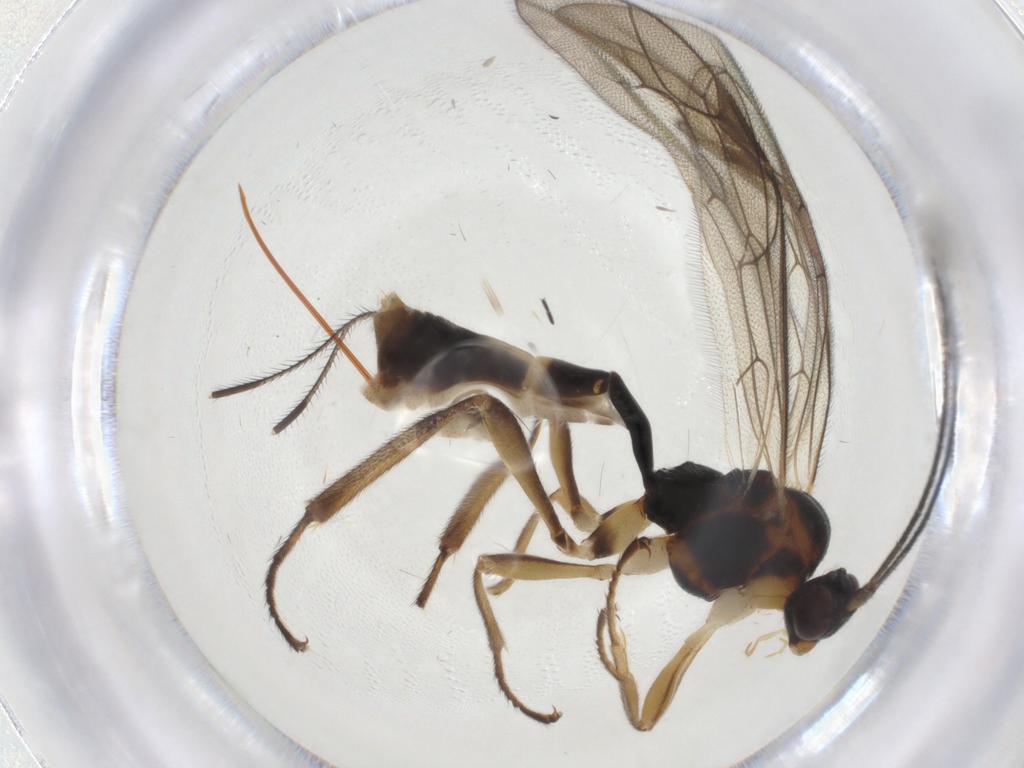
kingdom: Animalia
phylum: Arthropoda
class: Insecta
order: Hymenoptera
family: Ichneumonidae
